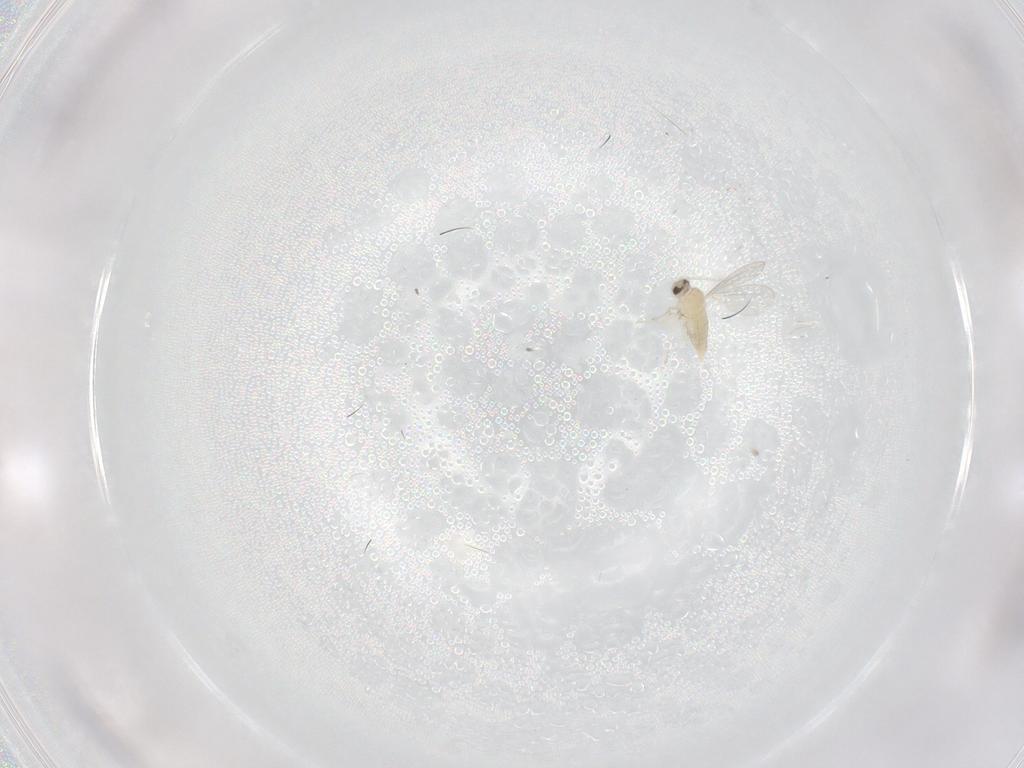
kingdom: Animalia
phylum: Arthropoda
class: Insecta
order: Diptera
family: Cecidomyiidae
